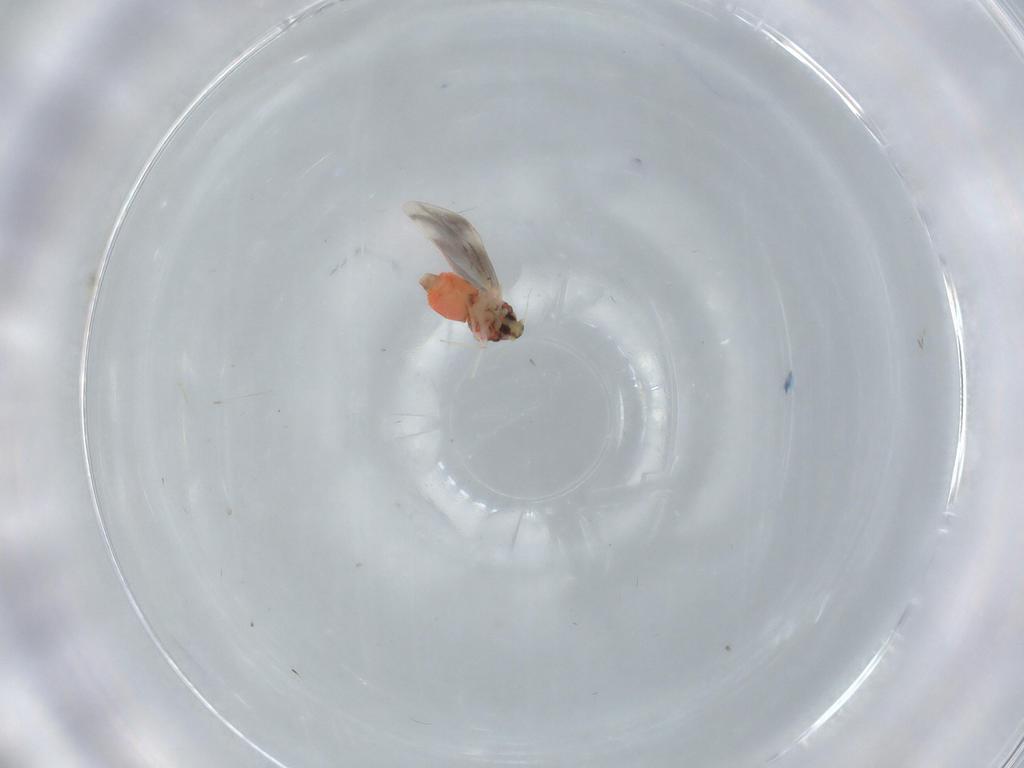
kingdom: Animalia
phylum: Arthropoda
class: Insecta
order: Hemiptera
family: Aleyrodidae
